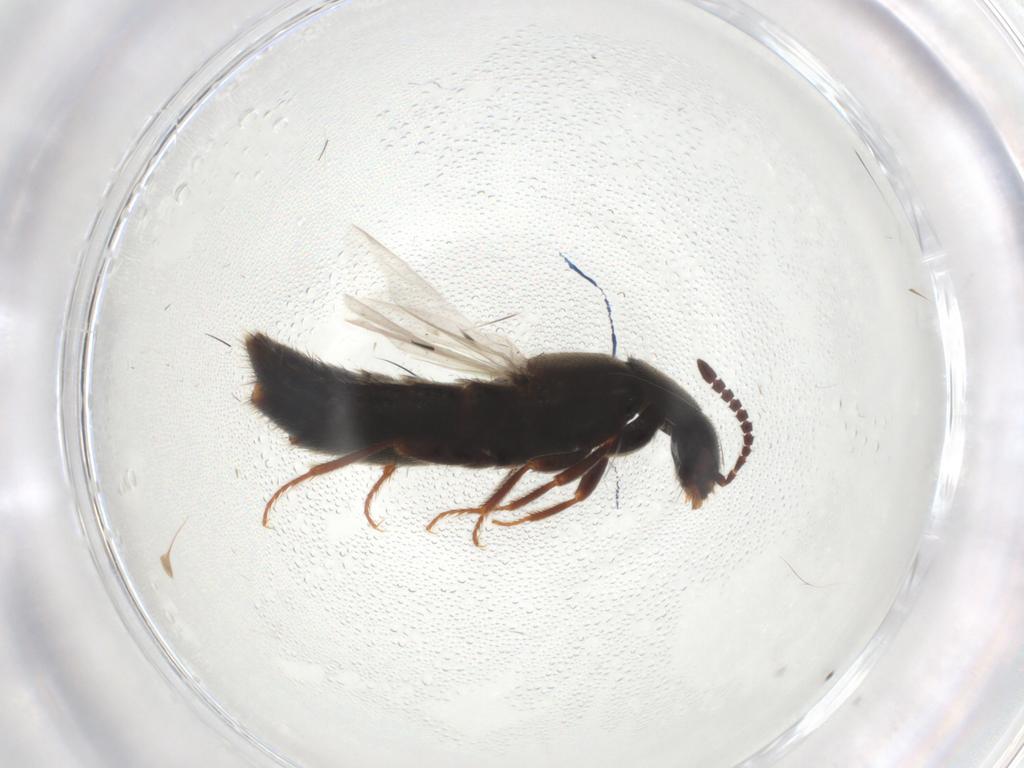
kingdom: Animalia
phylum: Arthropoda
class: Insecta
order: Coleoptera
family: Staphylinidae
